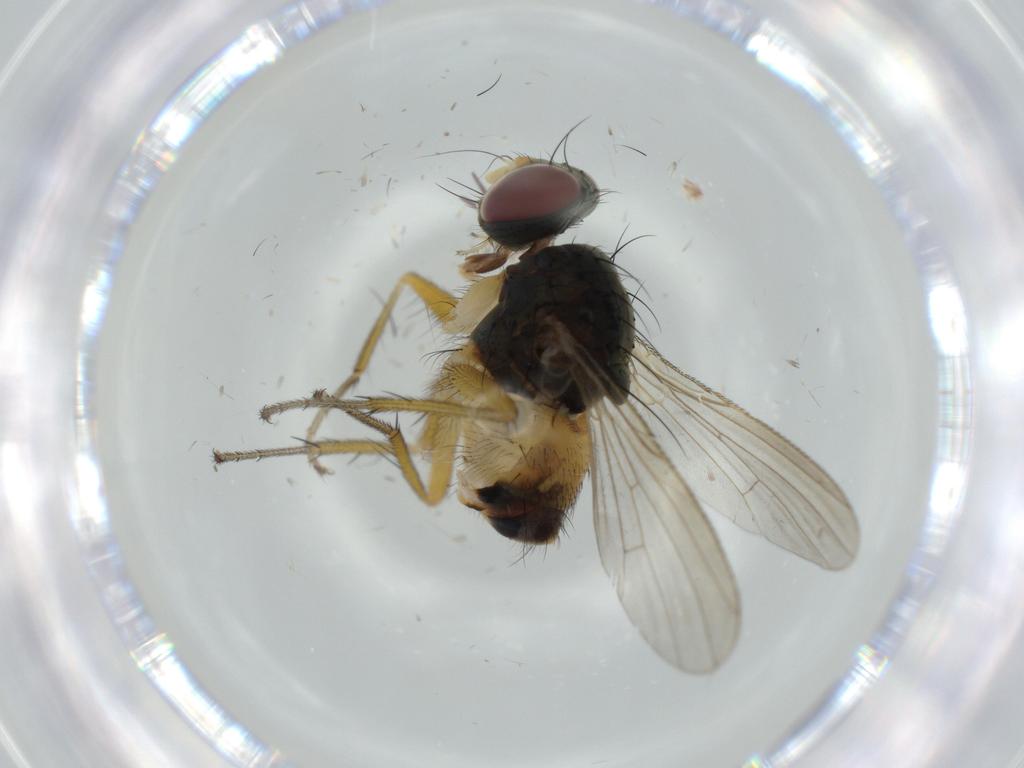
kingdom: Animalia
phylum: Arthropoda
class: Insecta
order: Diptera
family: Muscidae
